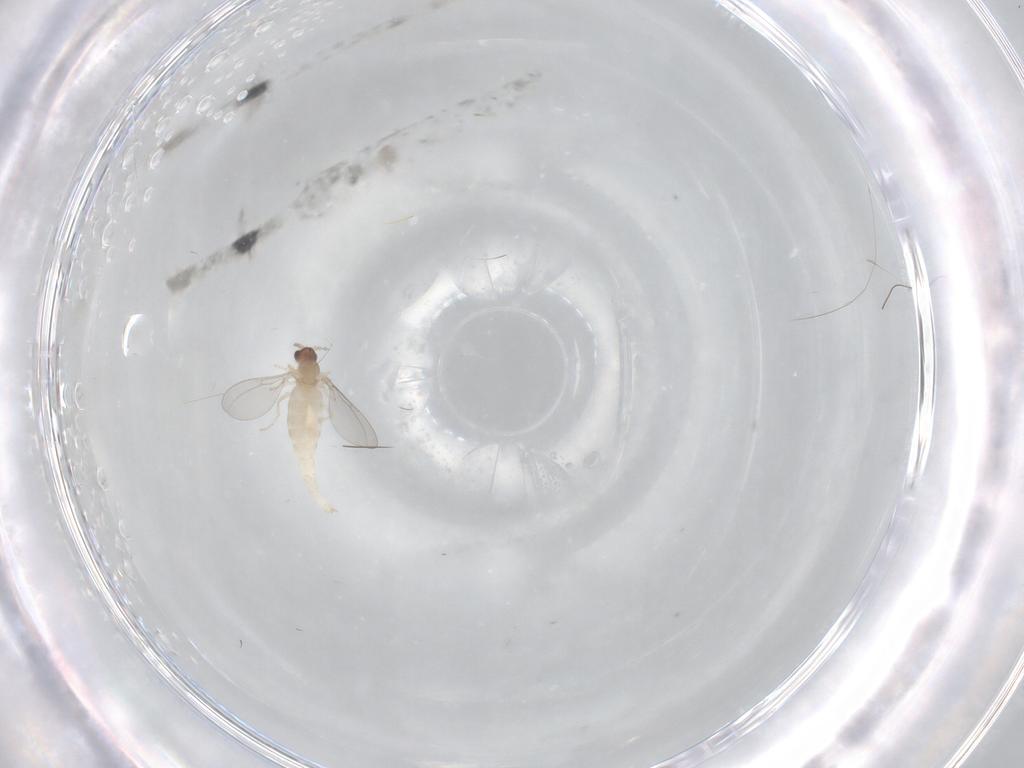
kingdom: Animalia
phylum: Arthropoda
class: Insecta
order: Diptera
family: Cecidomyiidae
